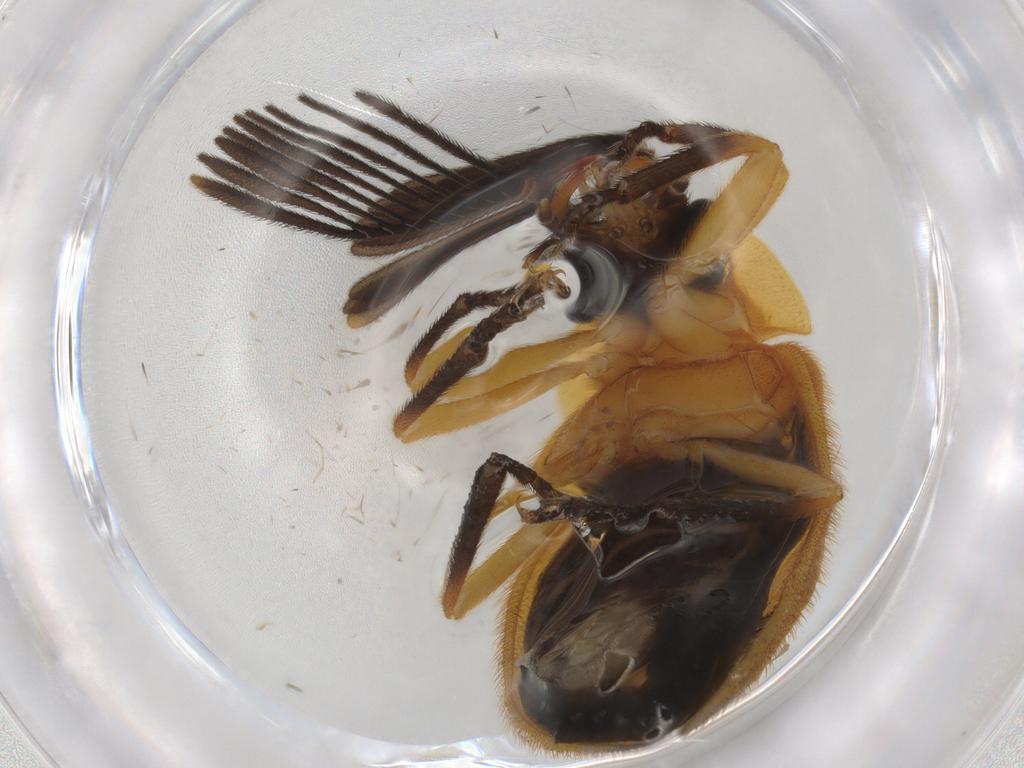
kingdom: Animalia
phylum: Arthropoda
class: Insecta
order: Coleoptera
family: Lampyridae
